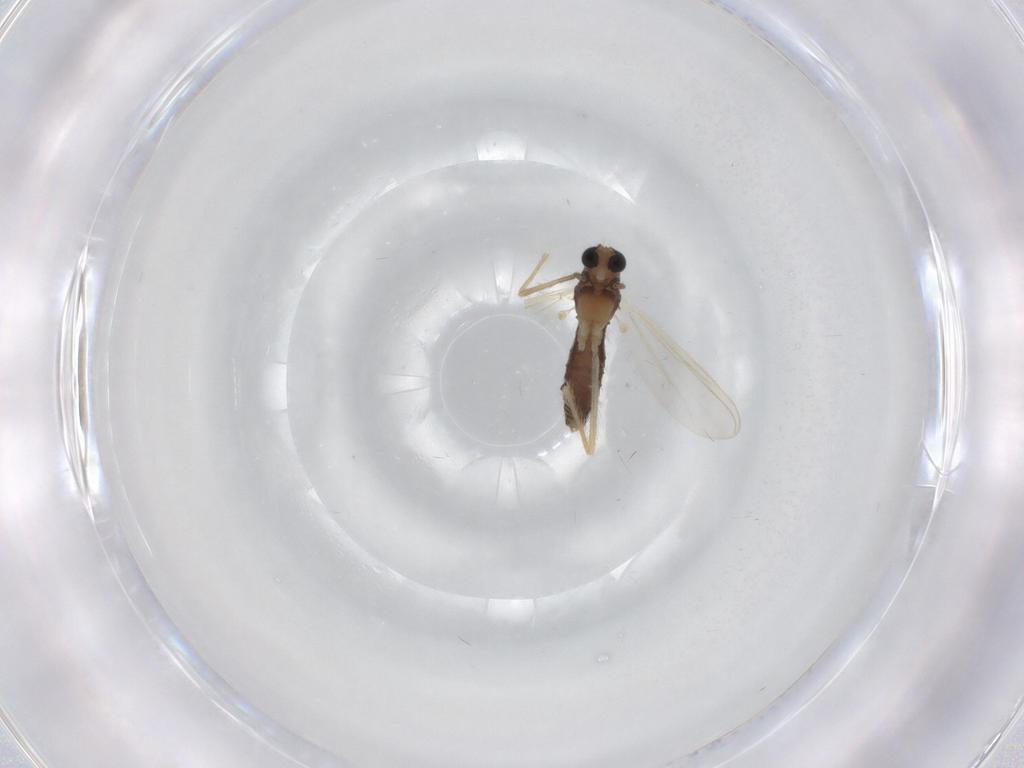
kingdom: Animalia
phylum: Arthropoda
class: Insecta
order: Diptera
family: Chironomidae
